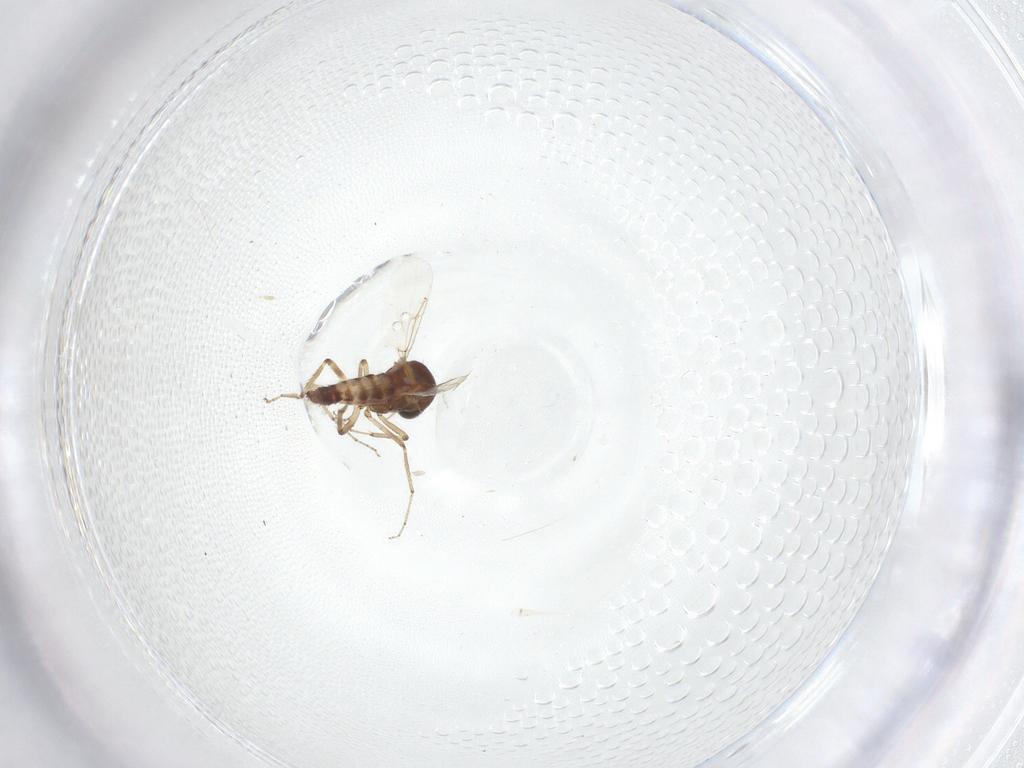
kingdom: Animalia
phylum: Arthropoda
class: Insecta
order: Diptera
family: Ceratopogonidae
